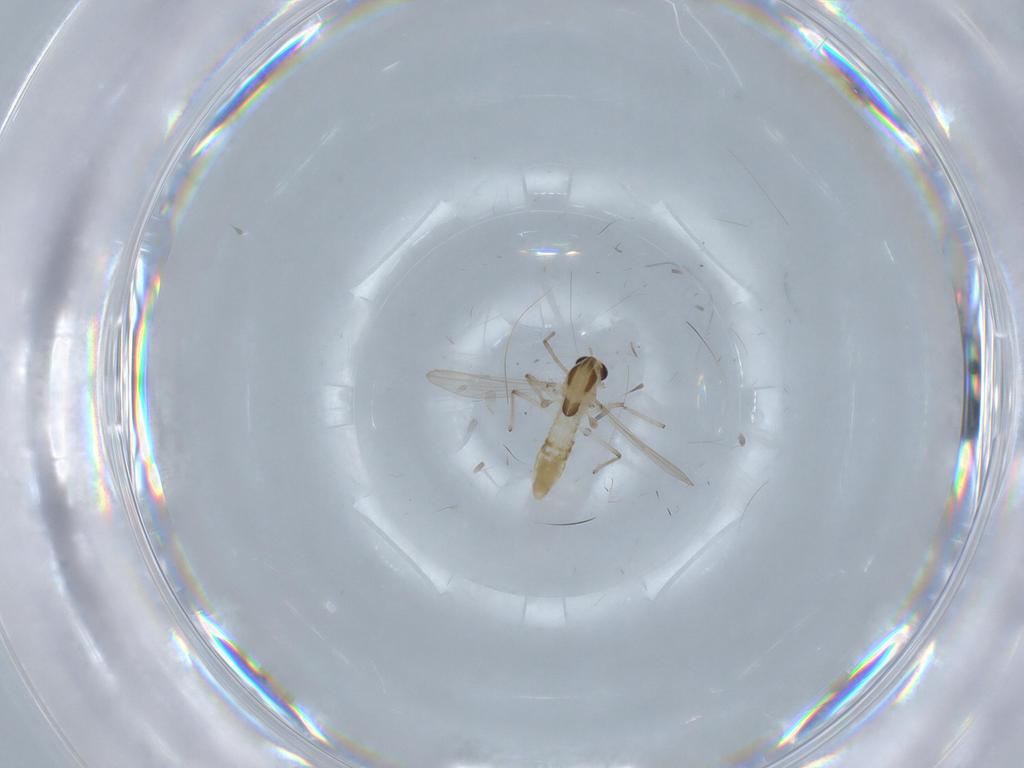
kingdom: Animalia
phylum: Arthropoda
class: Insecta
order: Diptera
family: Chironomidae
